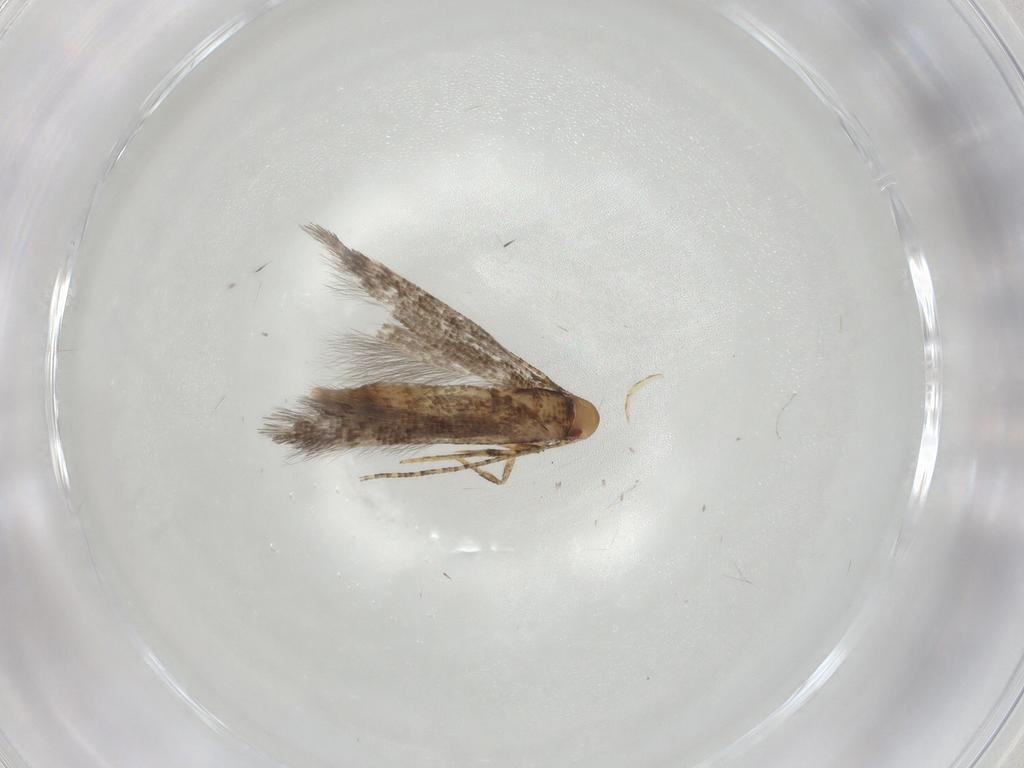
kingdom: Animalia
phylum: Arthropoda
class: Insecta
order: Lepidoptera
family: Momphidae
